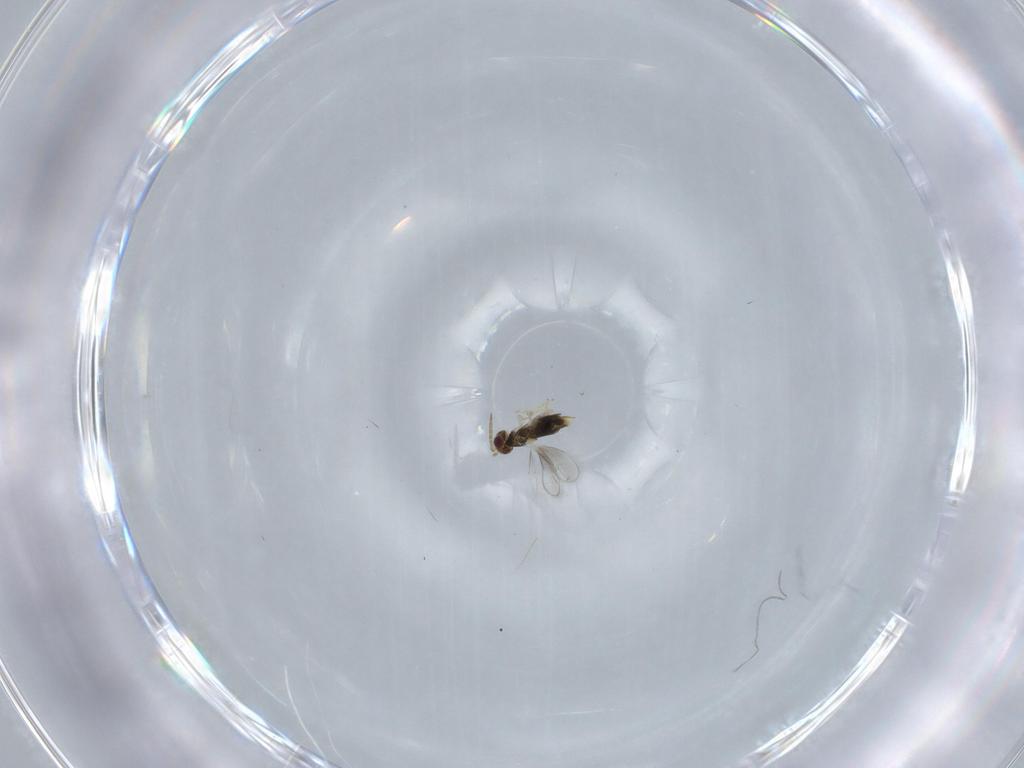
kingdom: Animalia
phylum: Arthropoda
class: Insecta
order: Hymenoptera
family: Aphelinidae
